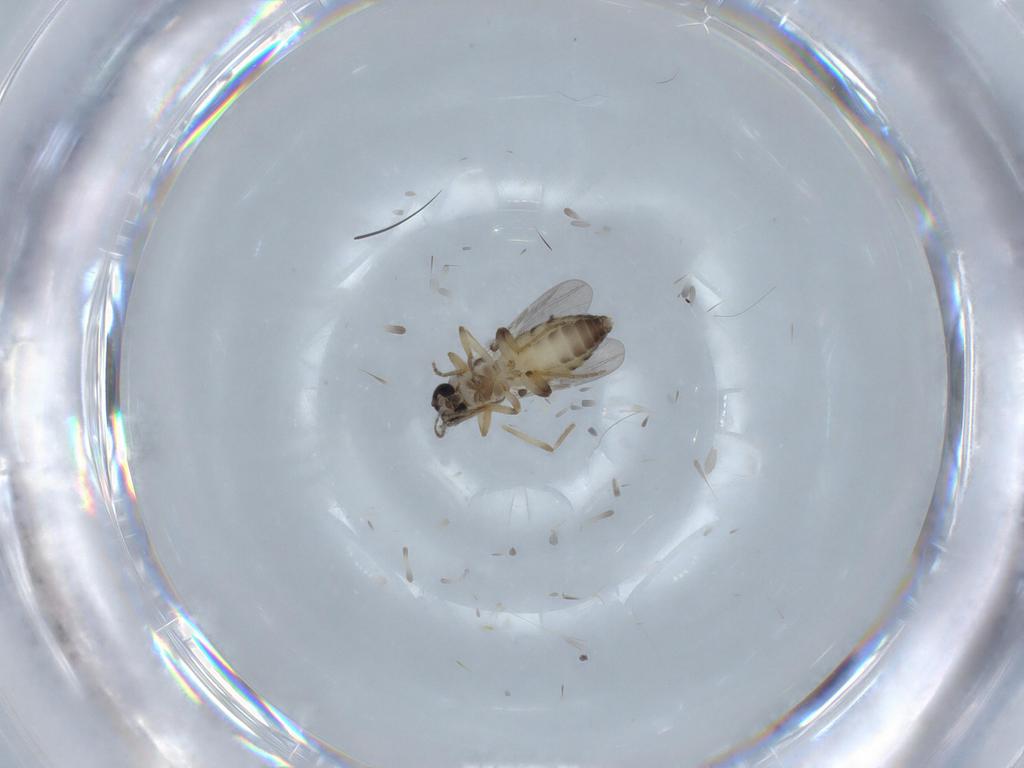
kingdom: Animalia
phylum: Arthropoda
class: Insecta
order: Diptera
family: Ceratopogonidae
